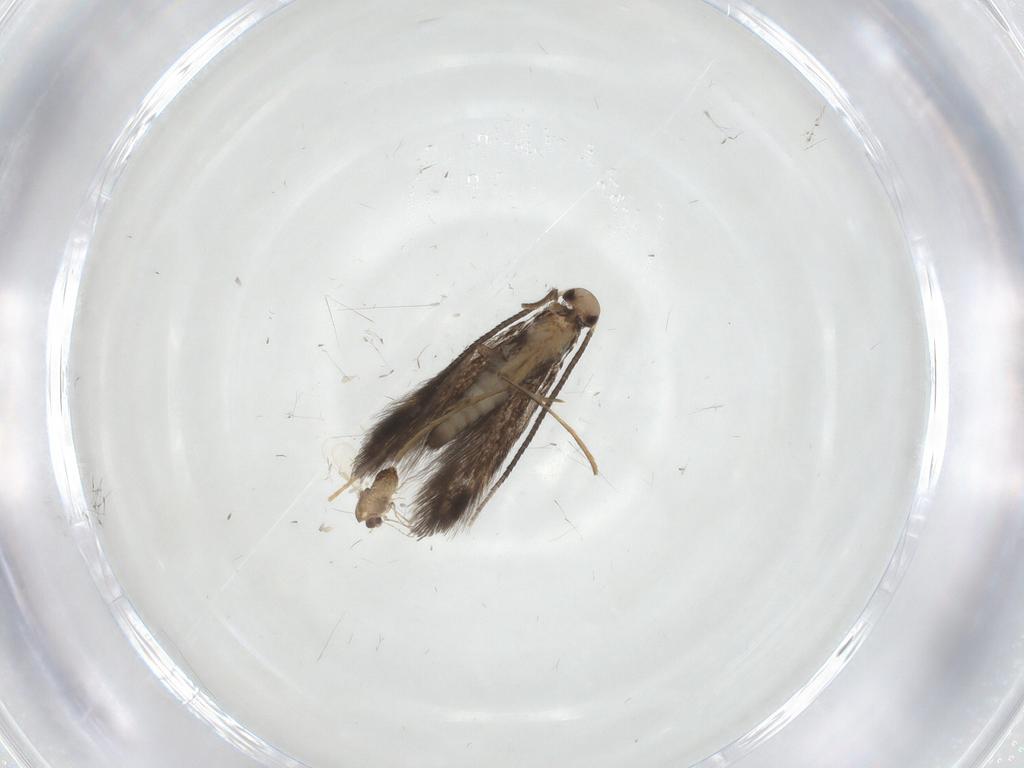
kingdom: Animalia
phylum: Arthropoda
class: Insecta
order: Lepidoptera
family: Gracillariidae
